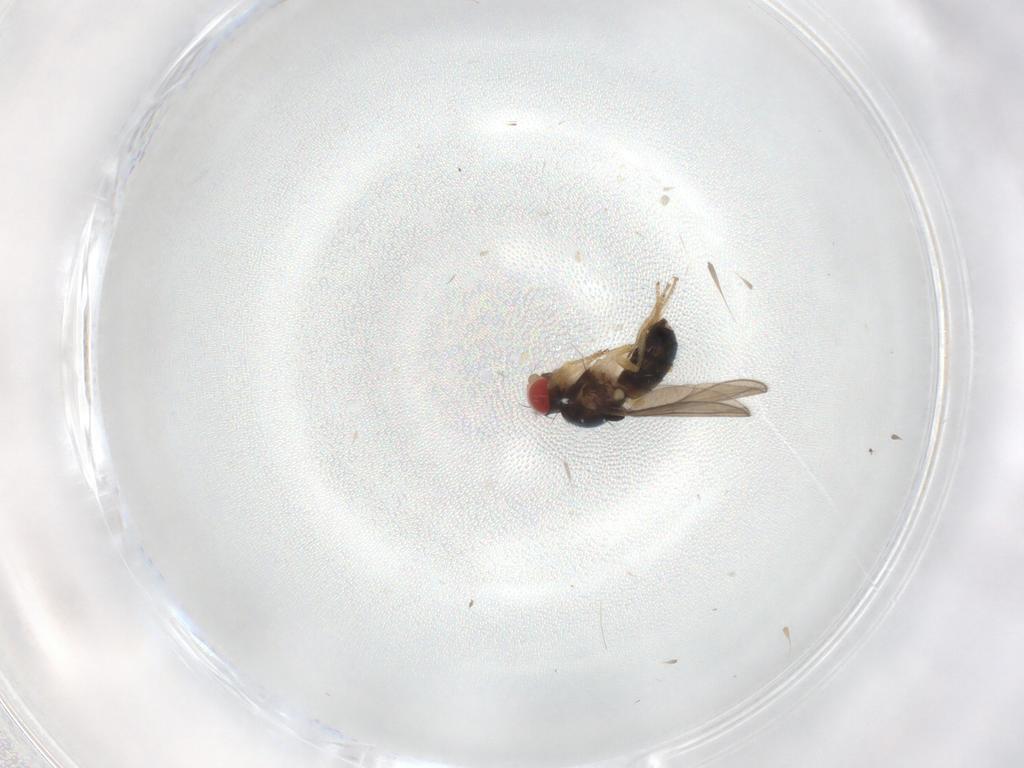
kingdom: Animalia
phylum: Arthropoda
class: Insecta
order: Diptera
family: Drosophilidae
